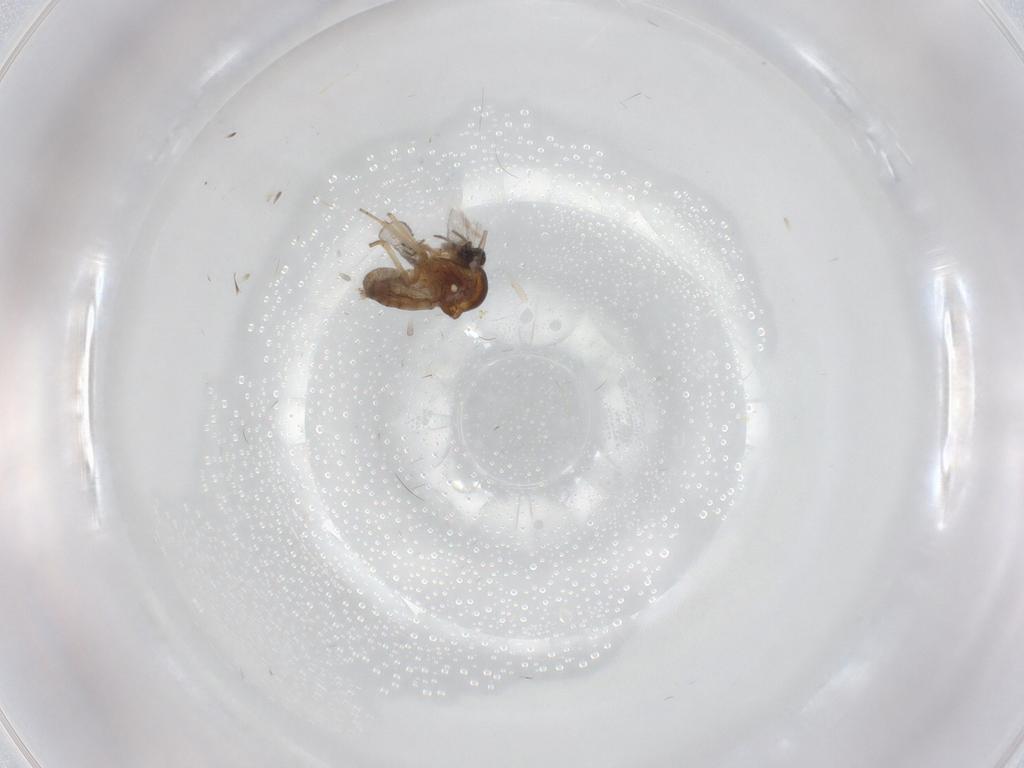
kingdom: Animalia
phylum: Arthropoda
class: Insecta
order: Diptera
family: Ceratopogonidae
